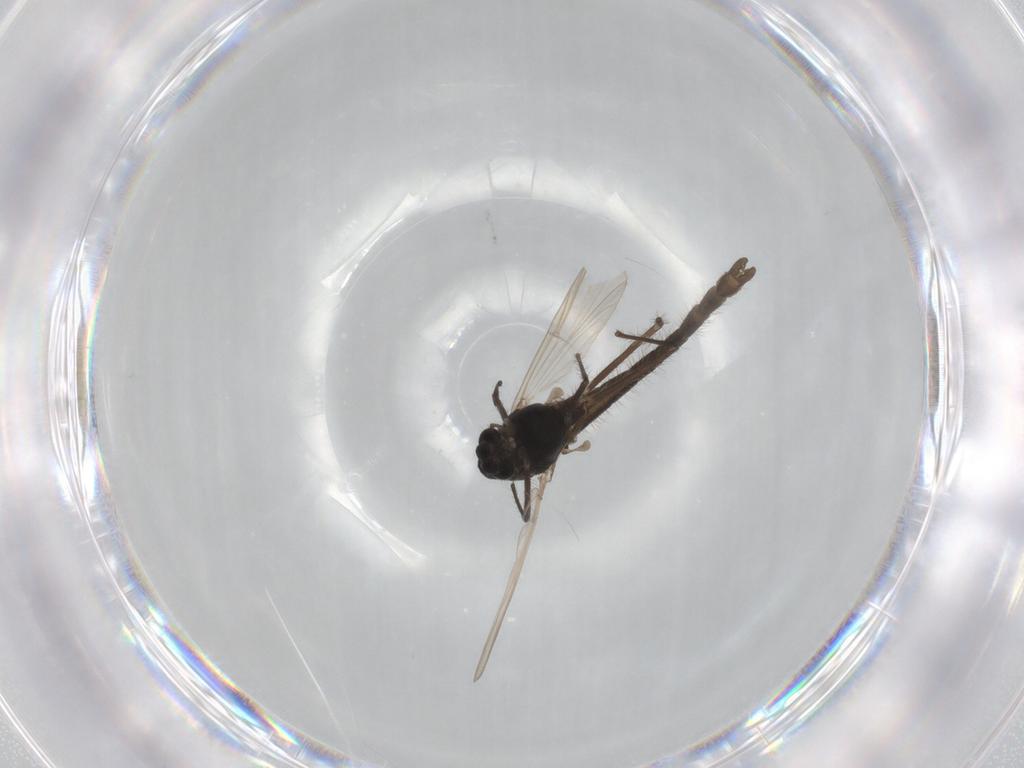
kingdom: Animalia
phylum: Arthropoda
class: Insecta
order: Diptera
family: Chironomidae
